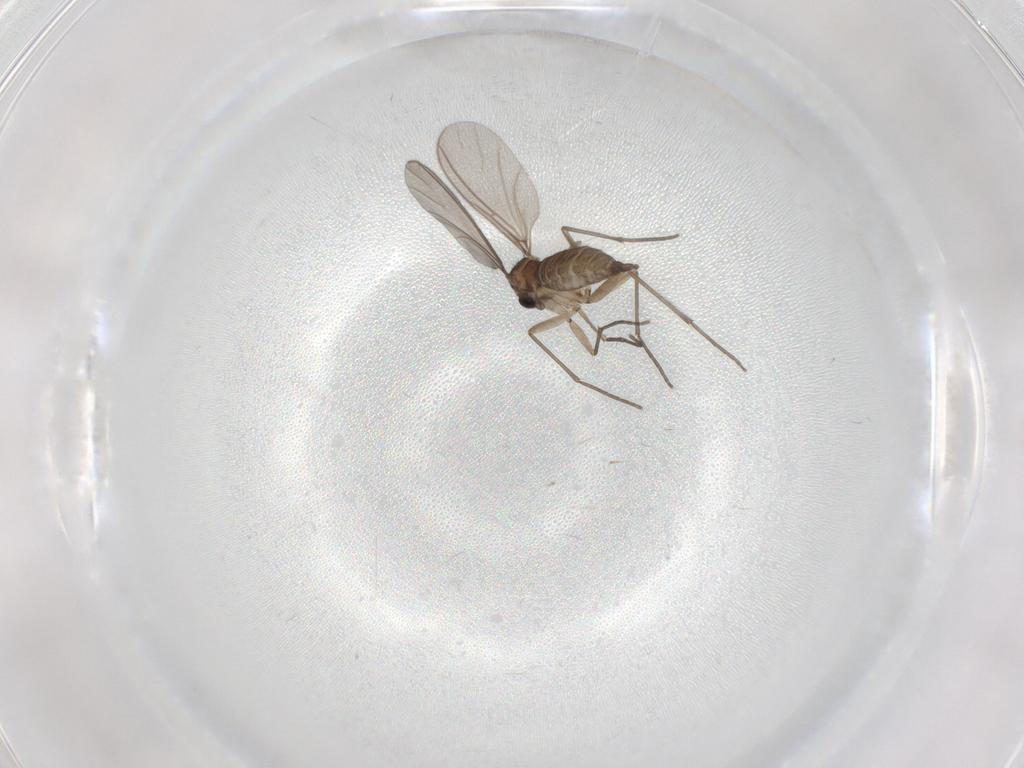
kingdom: Animalia
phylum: Arthropoda
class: Insecta
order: Diptera
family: Sciaridae
